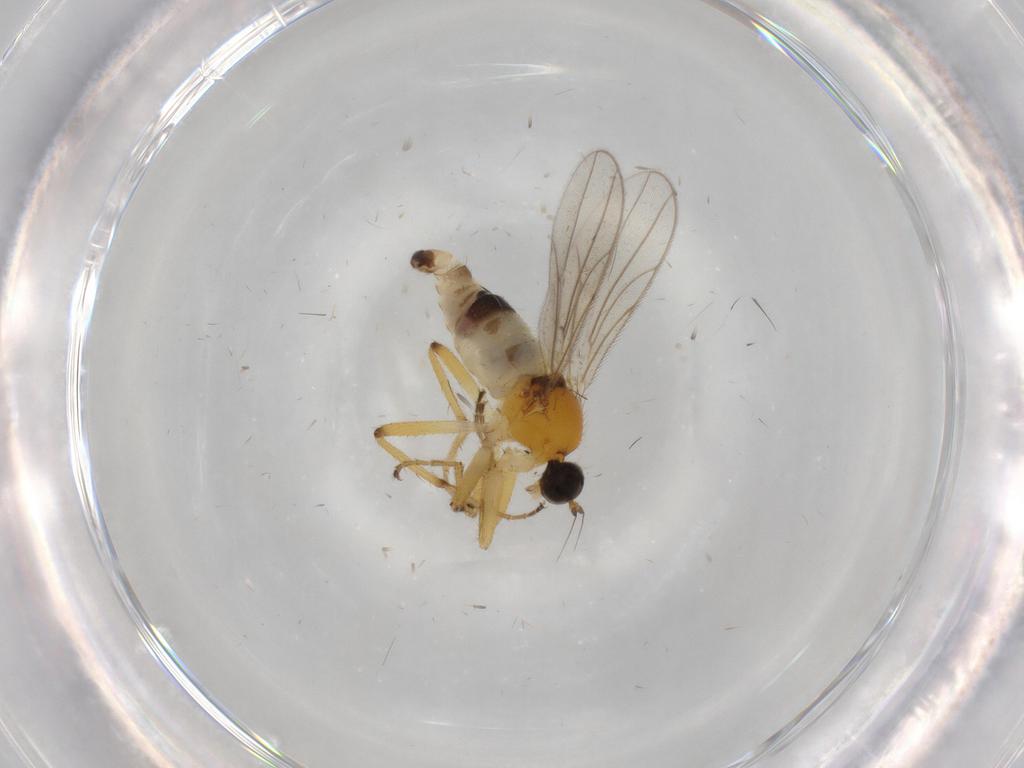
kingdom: Animalia
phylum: Arthropoda
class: Insecta
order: Diptera
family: Hybotidae
